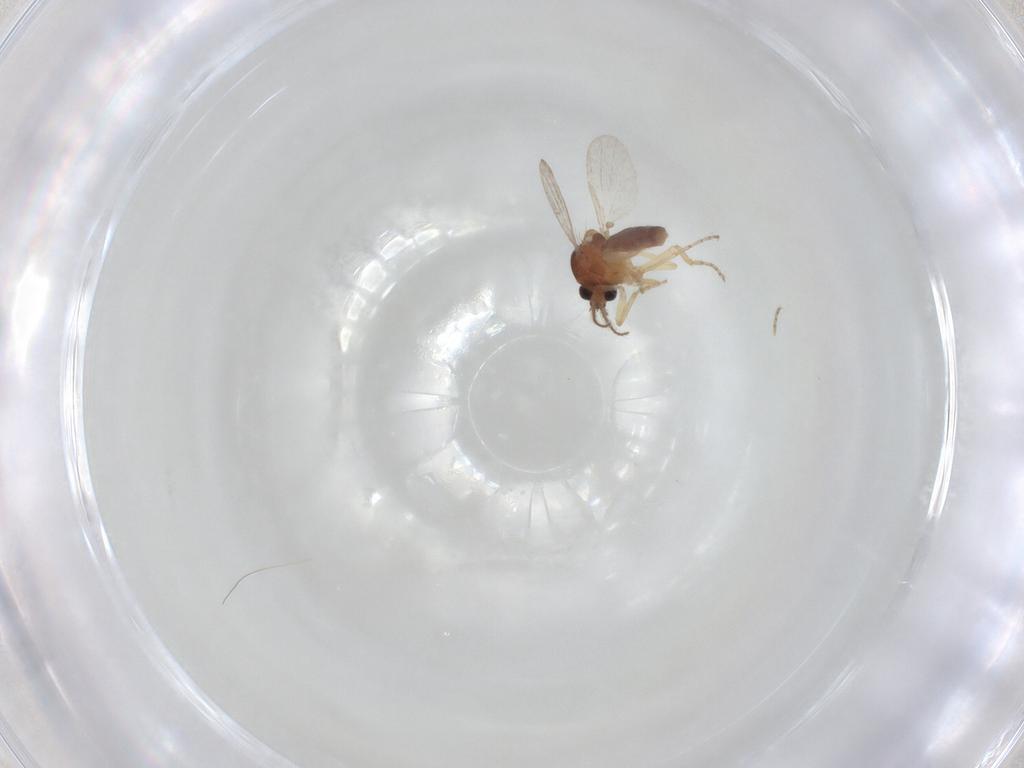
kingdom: Animalia
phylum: Arthropoda
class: Insecta
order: Diptera
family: Ceratopogonidae
